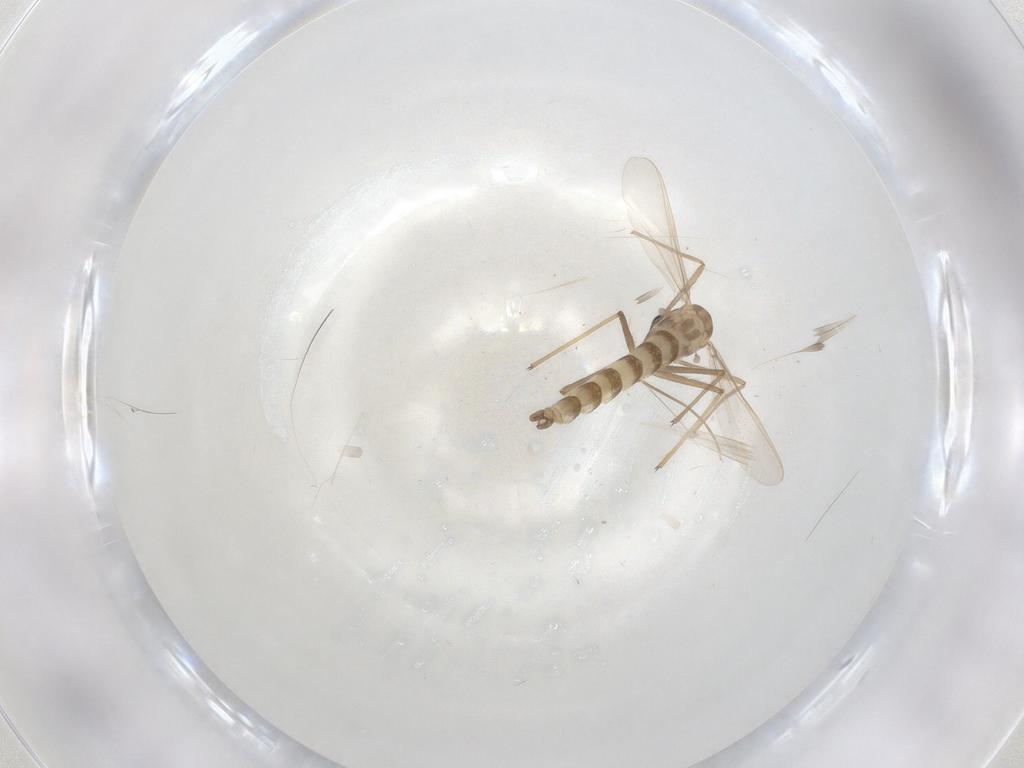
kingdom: Animalia
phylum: Arthropoda
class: Insecta
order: Diptera
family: Chironomidae
